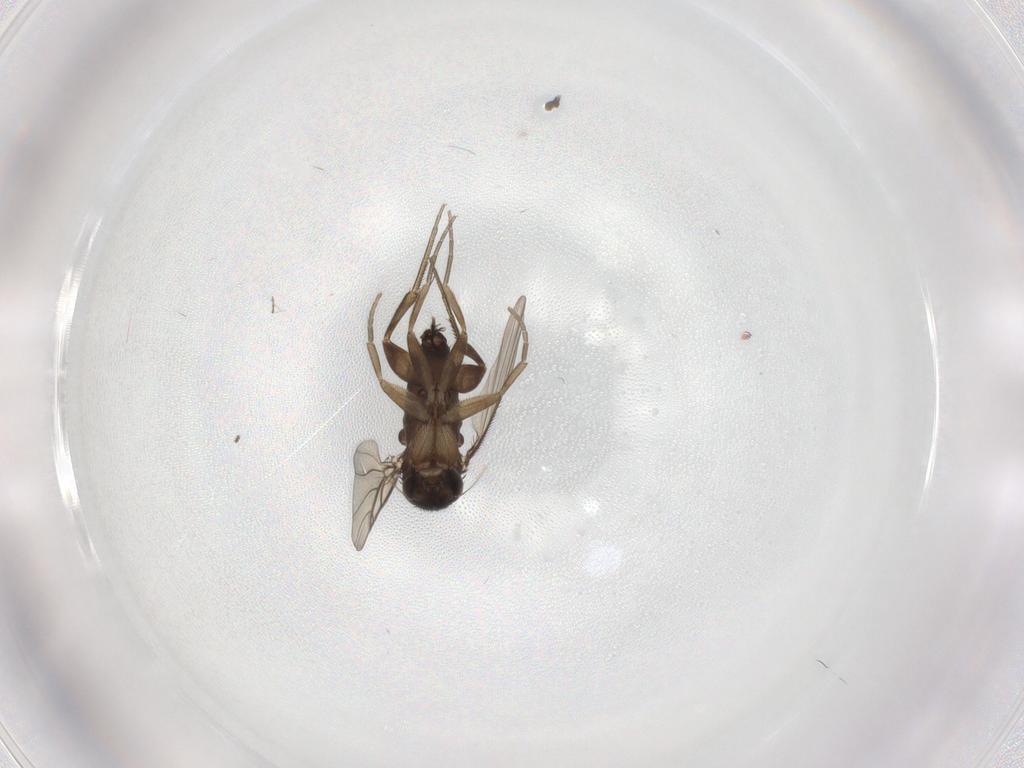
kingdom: Animalia
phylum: Arthropoda
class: Insecta
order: Diptera
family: Phoridae
